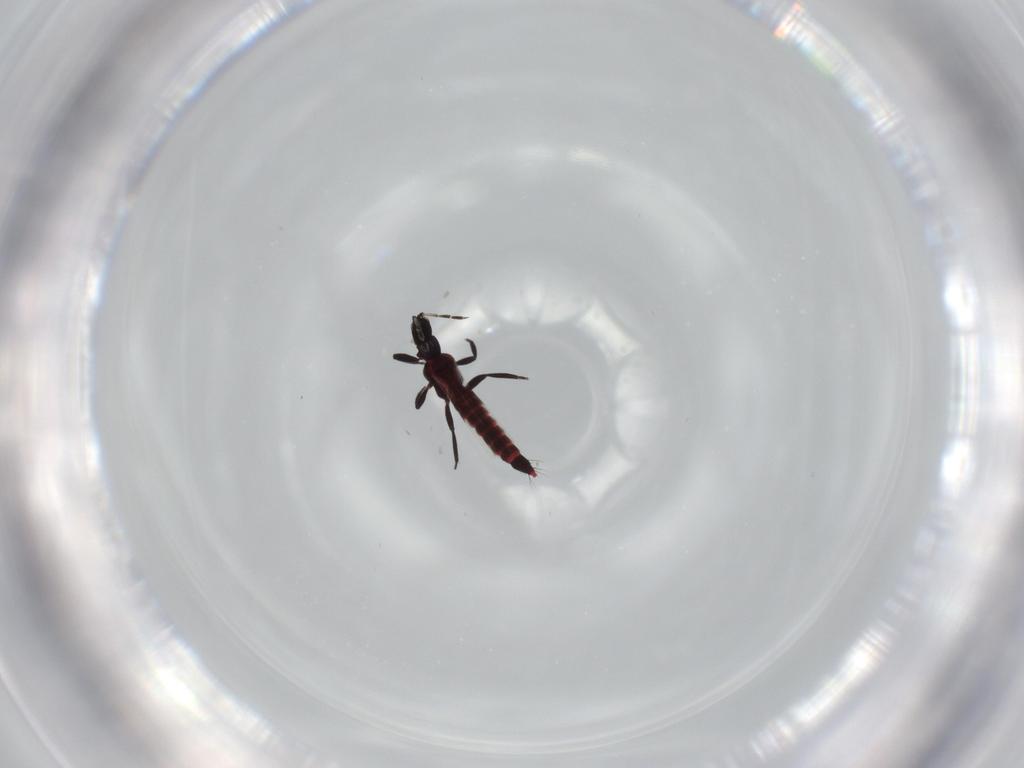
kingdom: Animalia
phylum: Arthropoda
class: Insecta
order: Thysanoptera
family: Aeolothripidae
